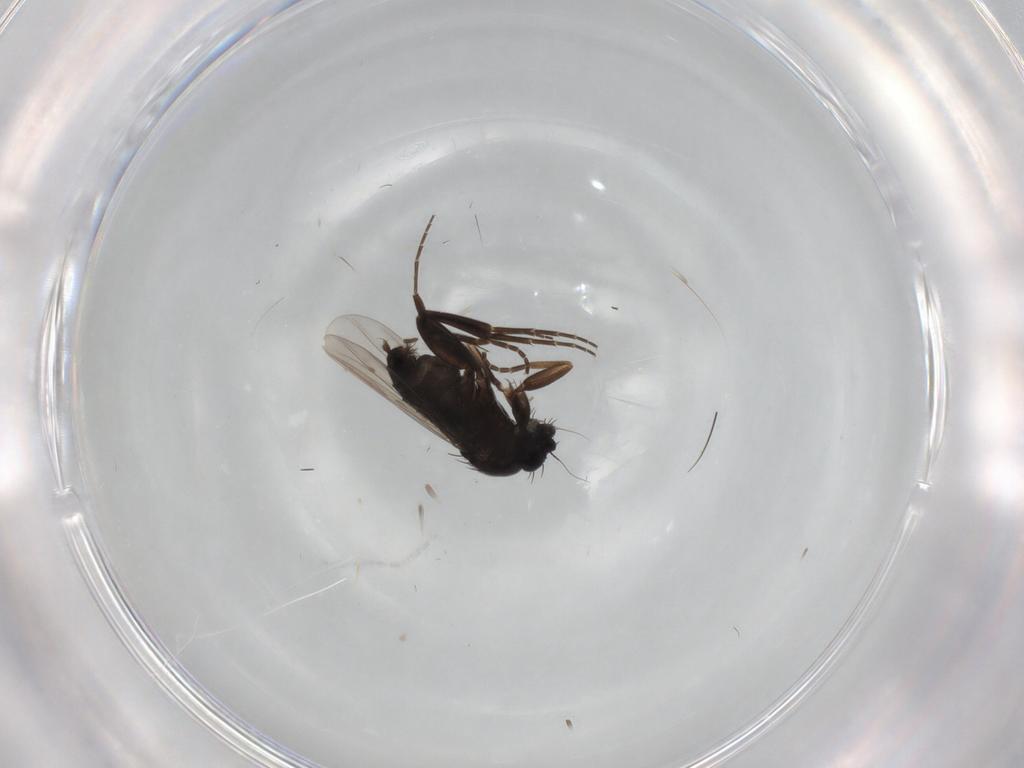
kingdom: Animalia
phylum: Arthropoda
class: Insecta
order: Diptera
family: Phoridae
